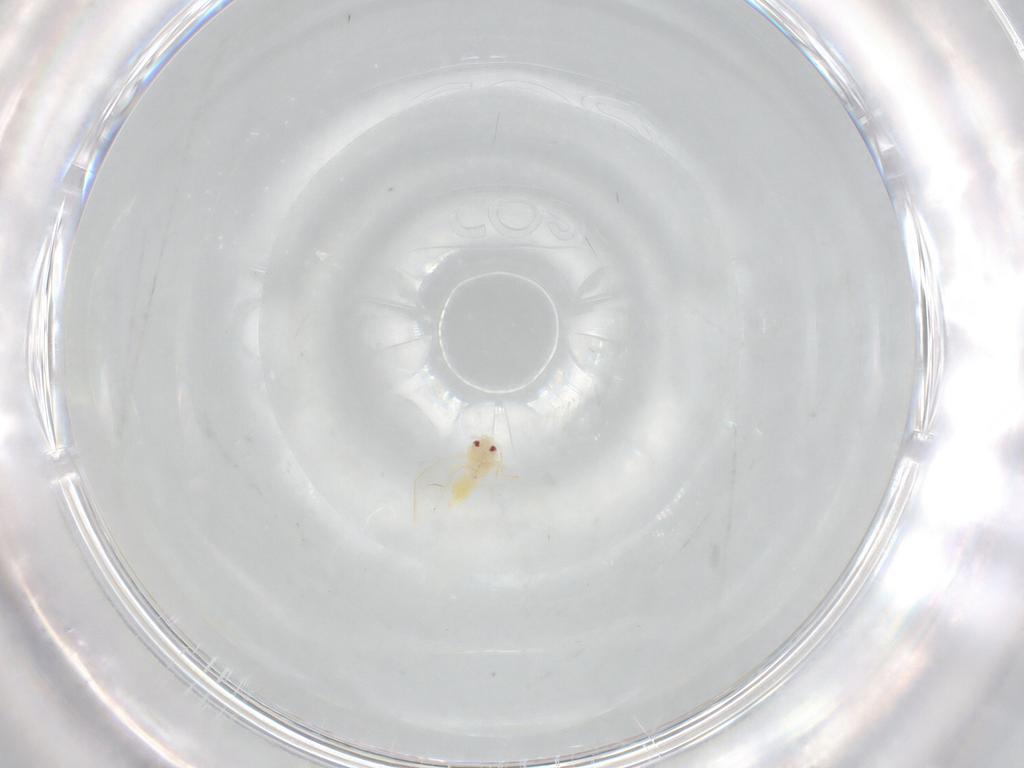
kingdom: Animalia
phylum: Arthropoda
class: Insecta
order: Hemiptera
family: Aleyrodidae
